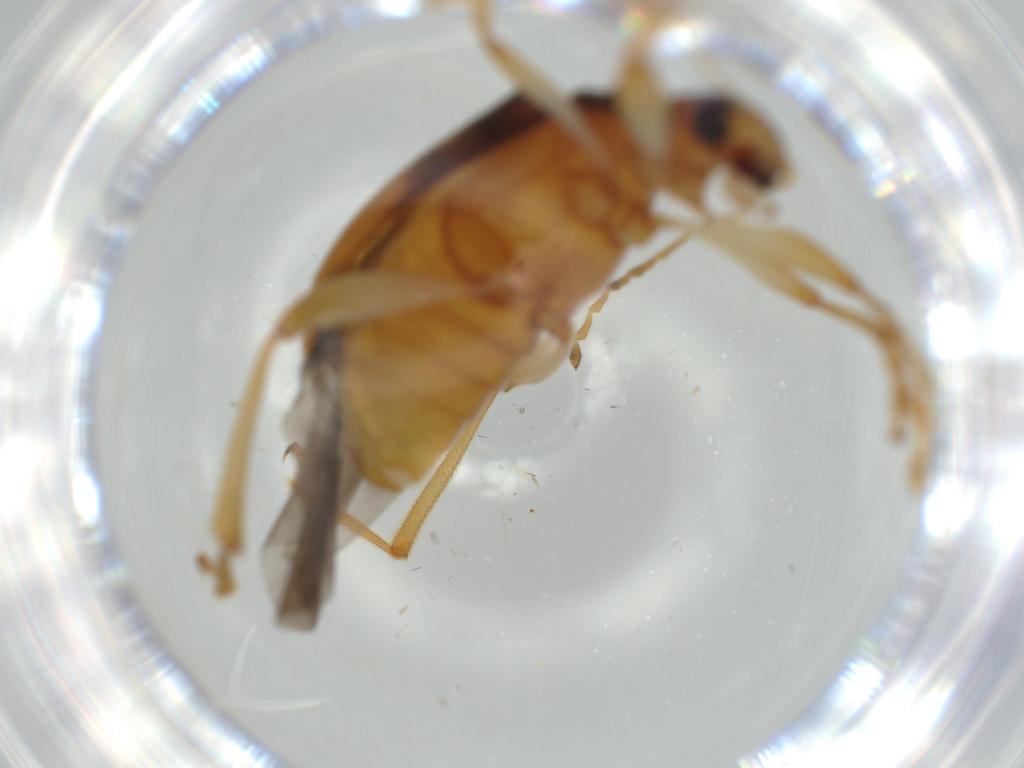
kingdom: Animalia
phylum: Arthropoda
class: Insecta
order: Coleoptera
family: Chrysomelidae
